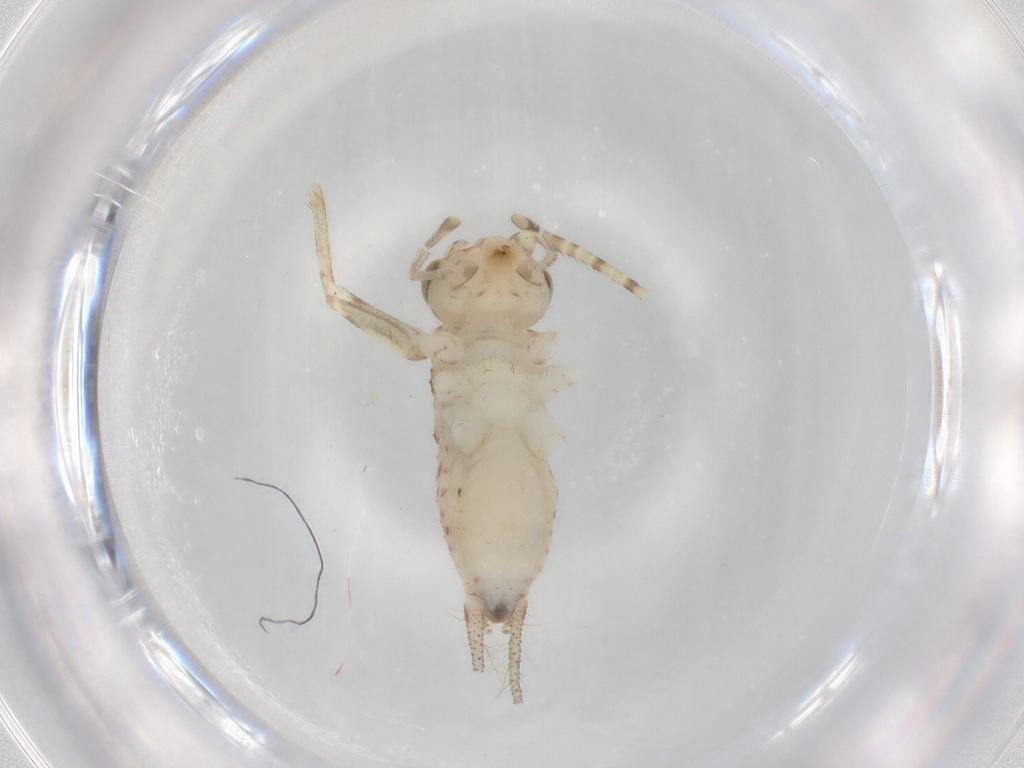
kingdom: Animalia
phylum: Arthropoda
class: Insecta
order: Orthoptera
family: Trigonidiidae
